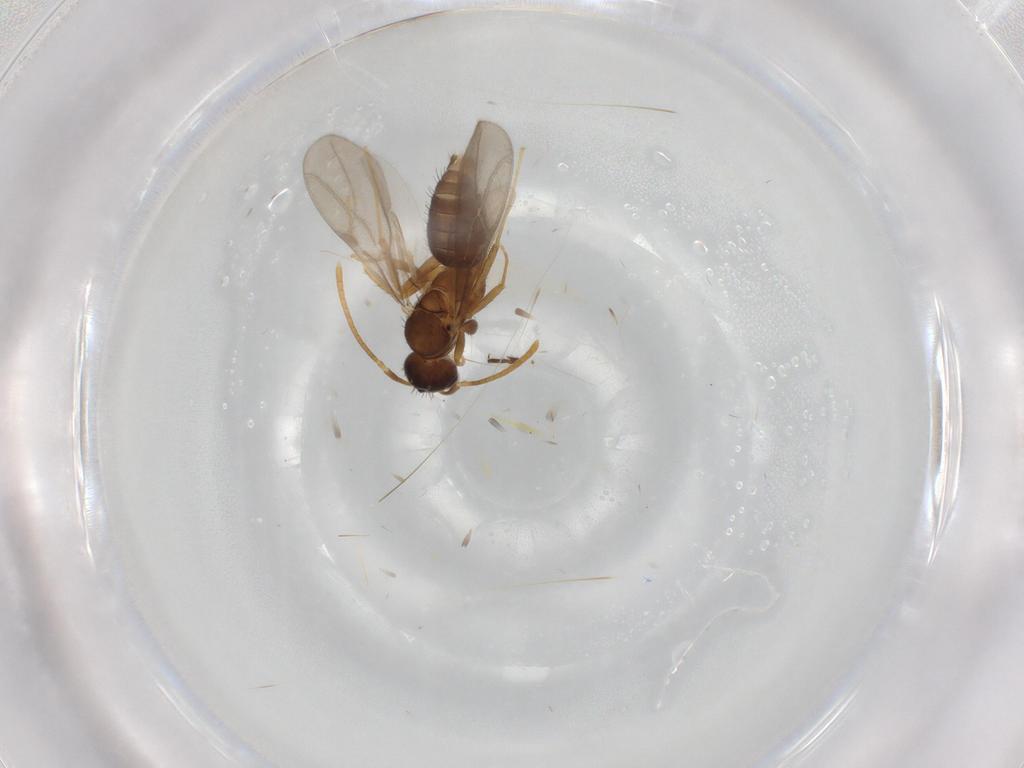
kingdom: Animalia
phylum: Arthropoda
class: Insecta
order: Diptera
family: Chironomidae
